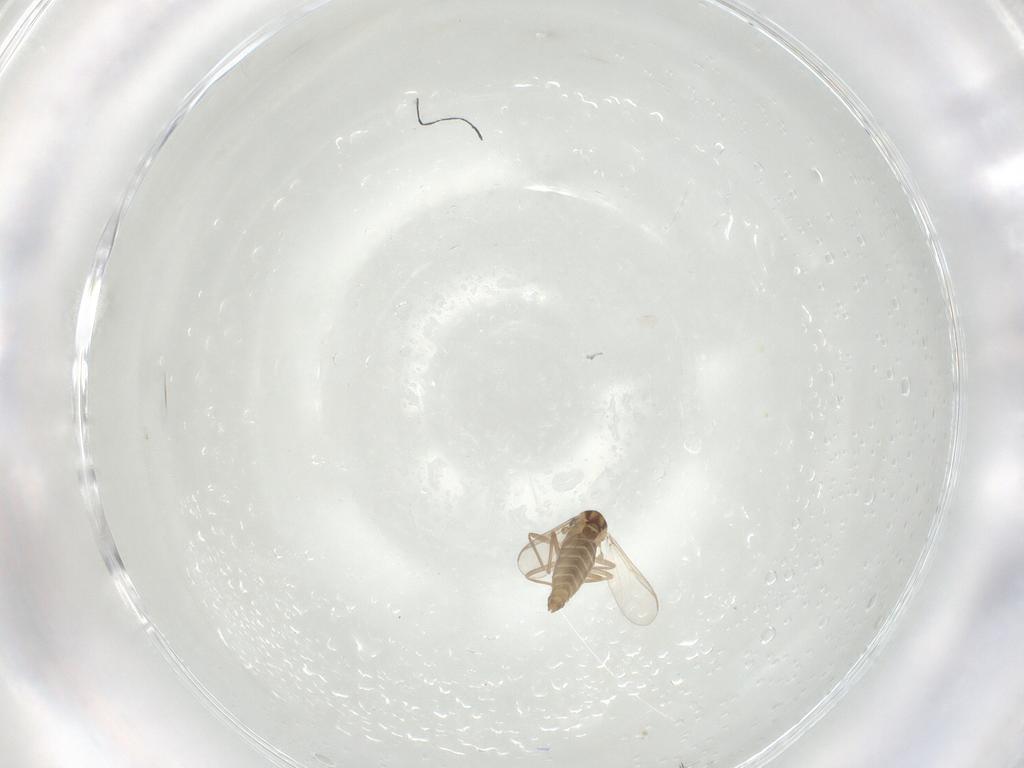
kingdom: Animalia
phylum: Arthropoda
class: Insecta
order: Diptera
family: Chironomidae
